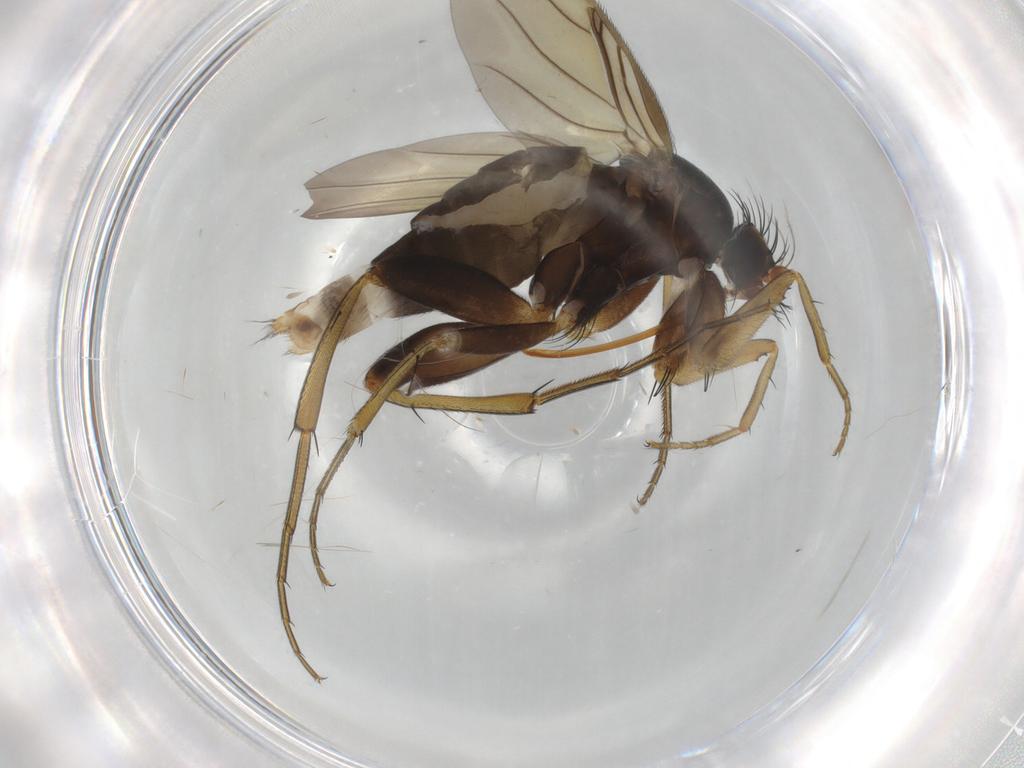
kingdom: Animalia
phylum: Arthropoda
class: Insecta
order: Diptera
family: Phoridae
